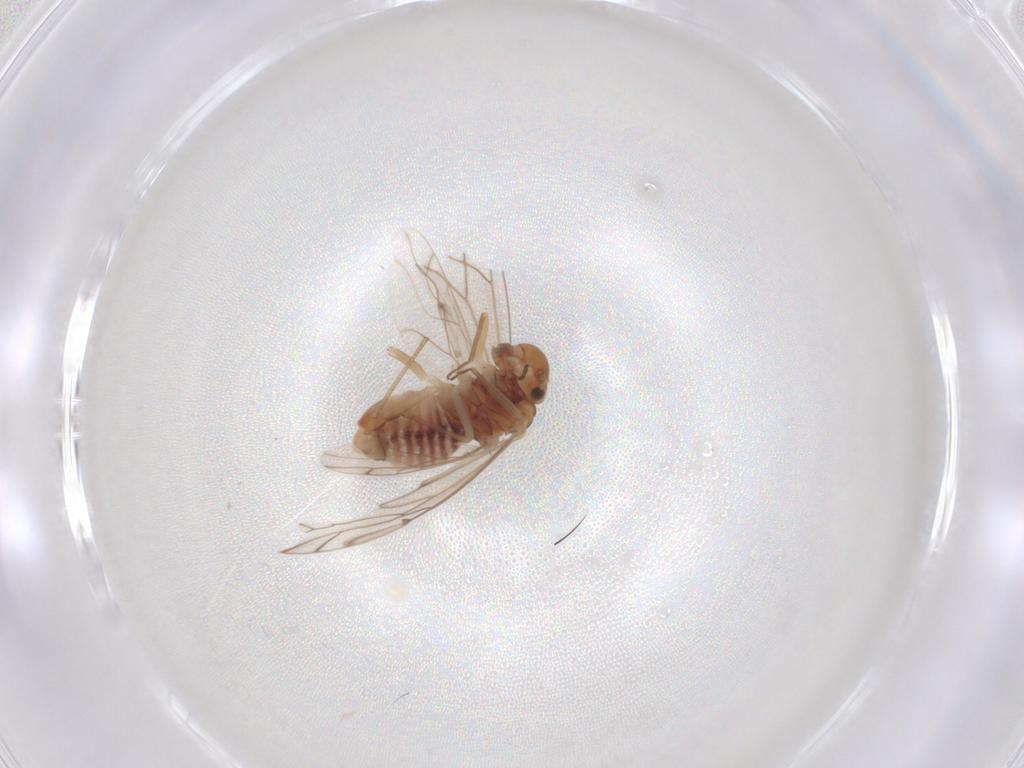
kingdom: Animalia
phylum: Arthropoda
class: Insecta
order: Psocodea
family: Lachesillidae
